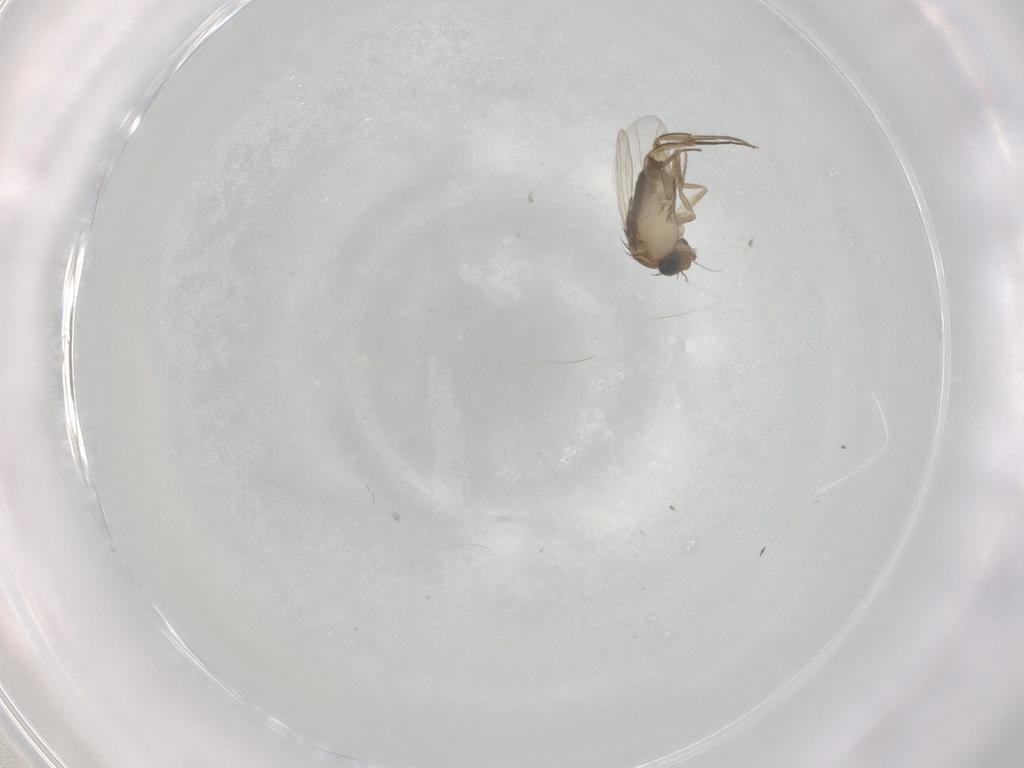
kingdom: Animalia
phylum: Arthropoda
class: Insecta
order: Diptera
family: Phoridae
